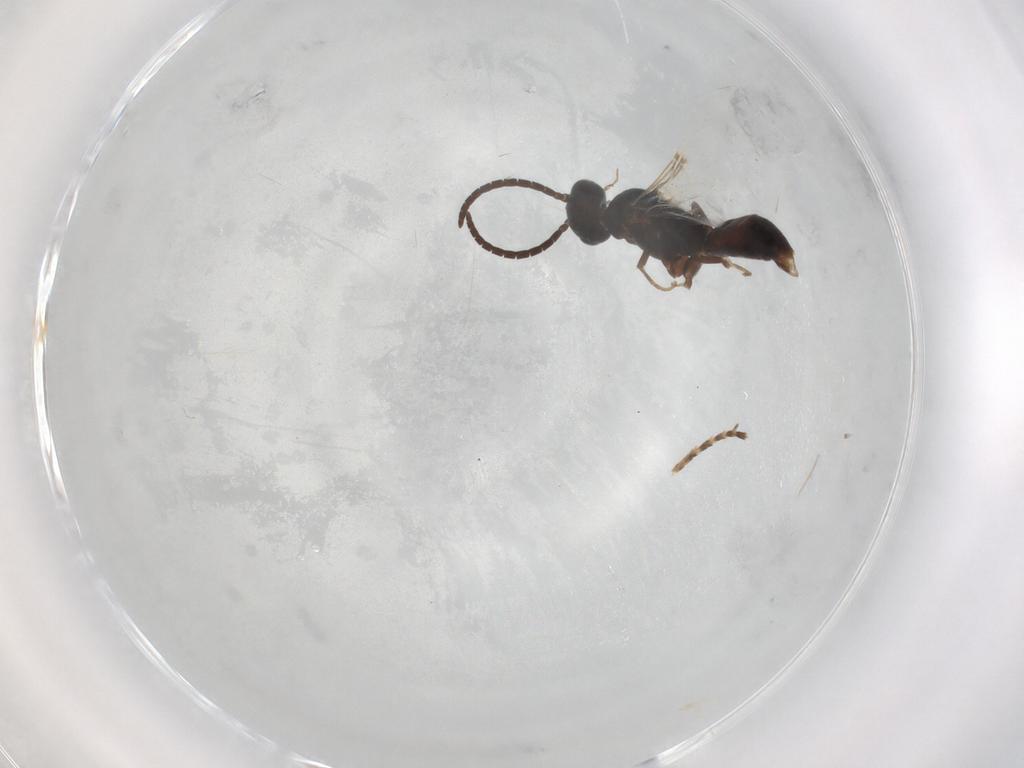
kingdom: Animalia
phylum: Arthropoda
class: Insecta
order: Hymenoptera
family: Bethylidae
